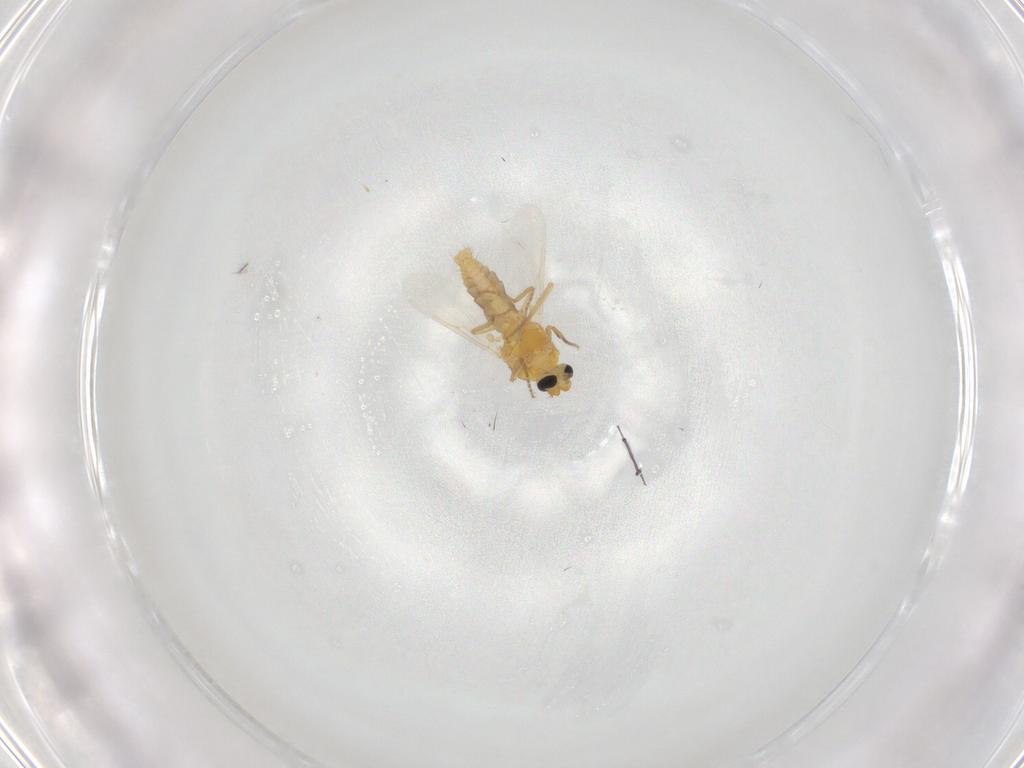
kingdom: Animalia
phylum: Arthropoda
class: Insecta
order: Diptera
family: Ceratopogonidae
